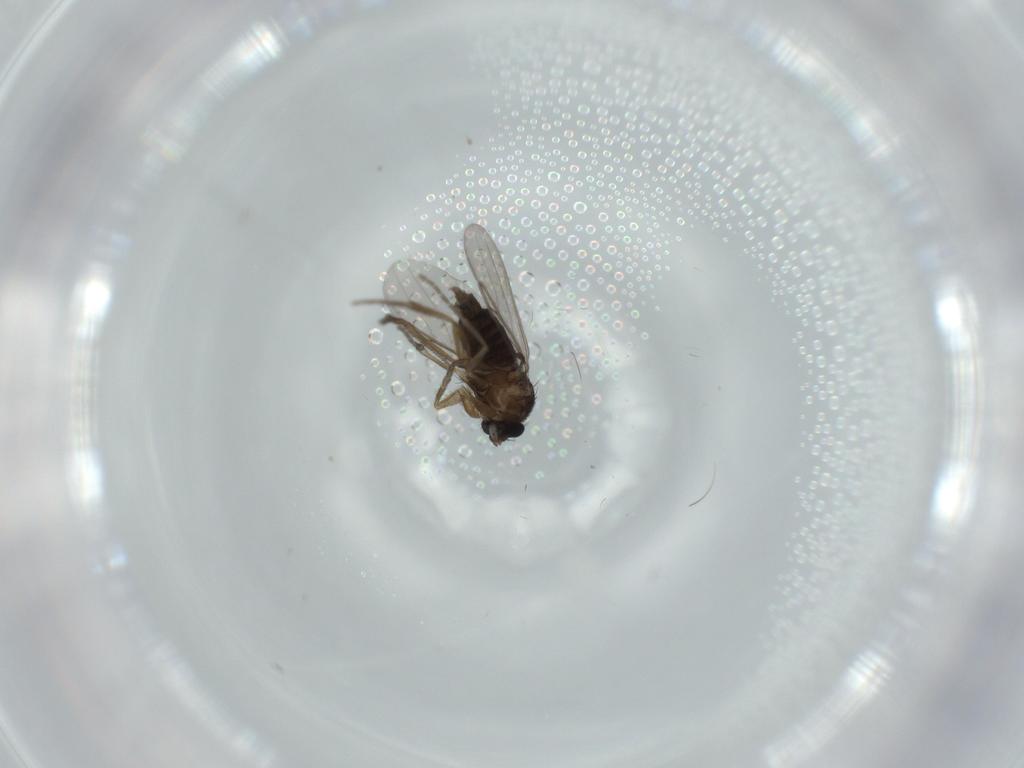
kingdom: Animalia
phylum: Arthropoda
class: Insecta
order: Diptera
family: Phoridae
